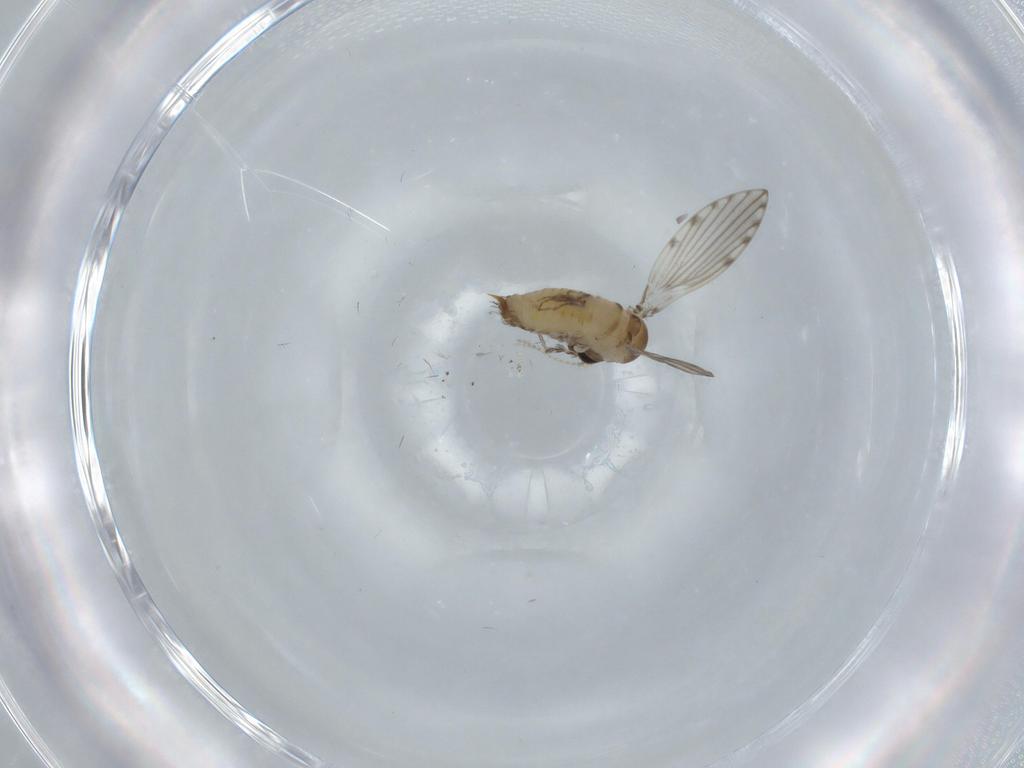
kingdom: Animalia
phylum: Arthropoda
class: Insecta
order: Diptera
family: Psychodidae
